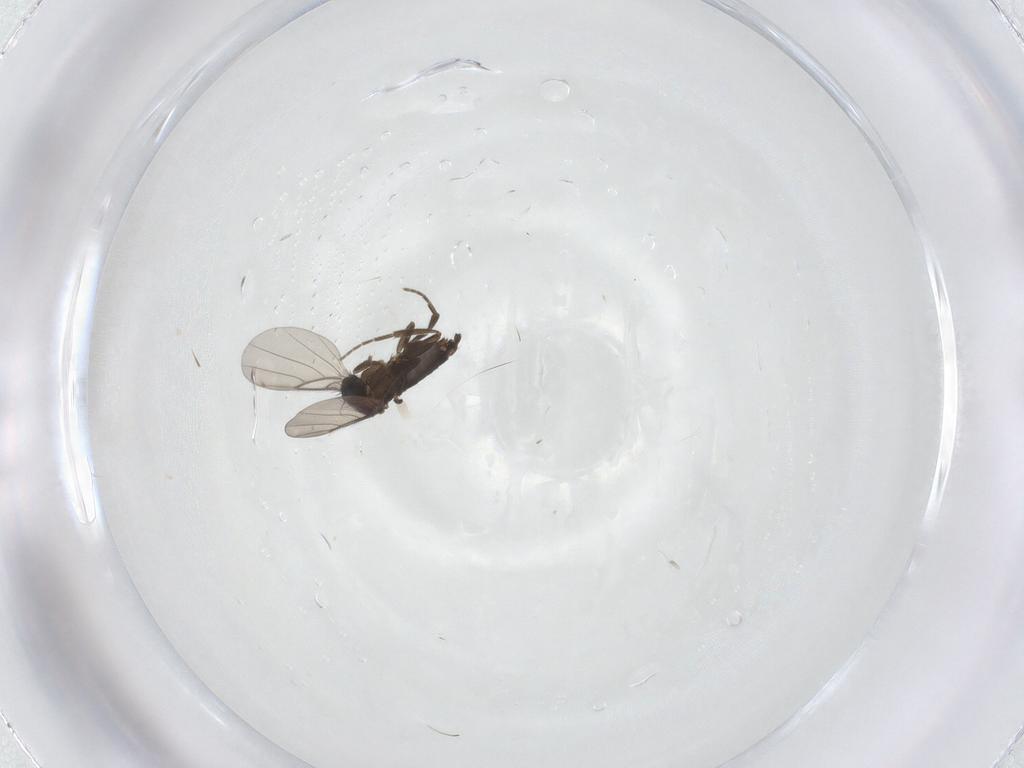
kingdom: Animalia
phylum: Arthropoda
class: Insecta
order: Diptera
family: Phoridae
